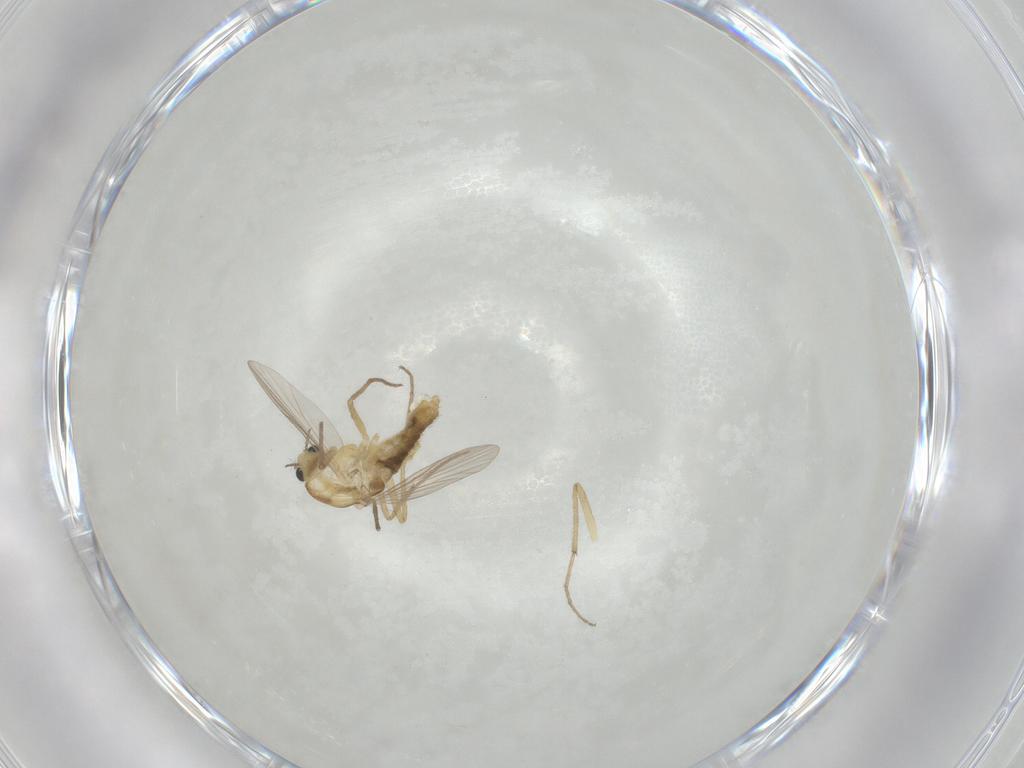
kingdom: Animalia
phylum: Arthropoda
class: Insecta
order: Diptera
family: Chironomidae
